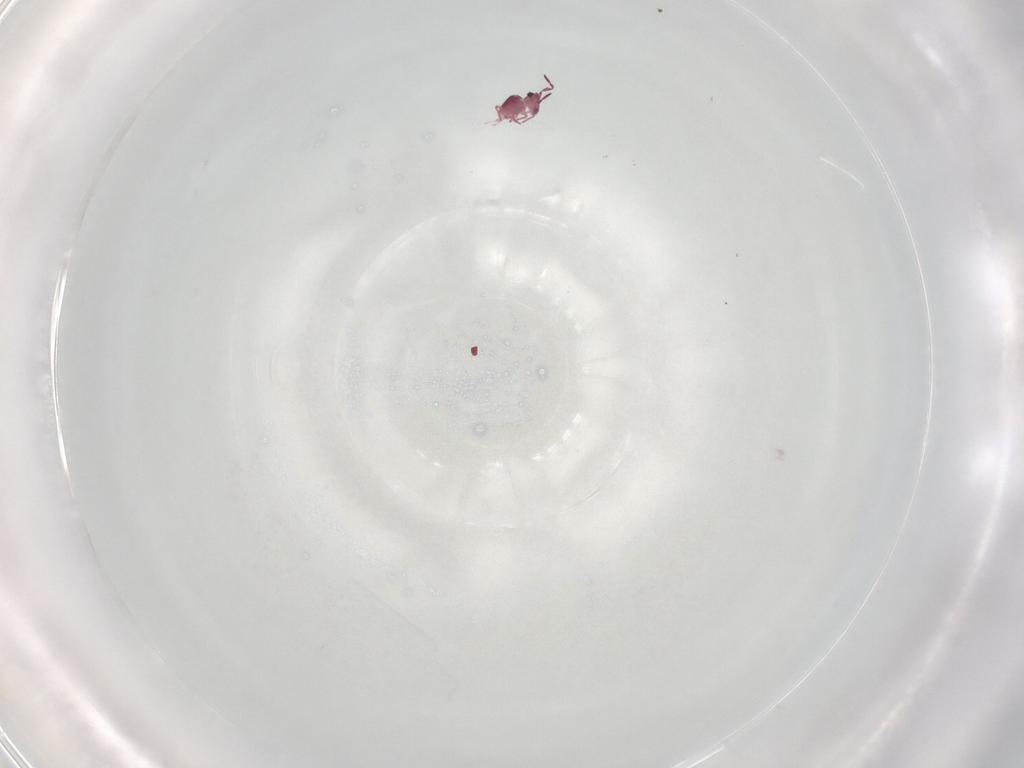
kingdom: Animalia
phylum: Arthropoda
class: Collembola
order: Symphypleona
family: Sminthurididae
